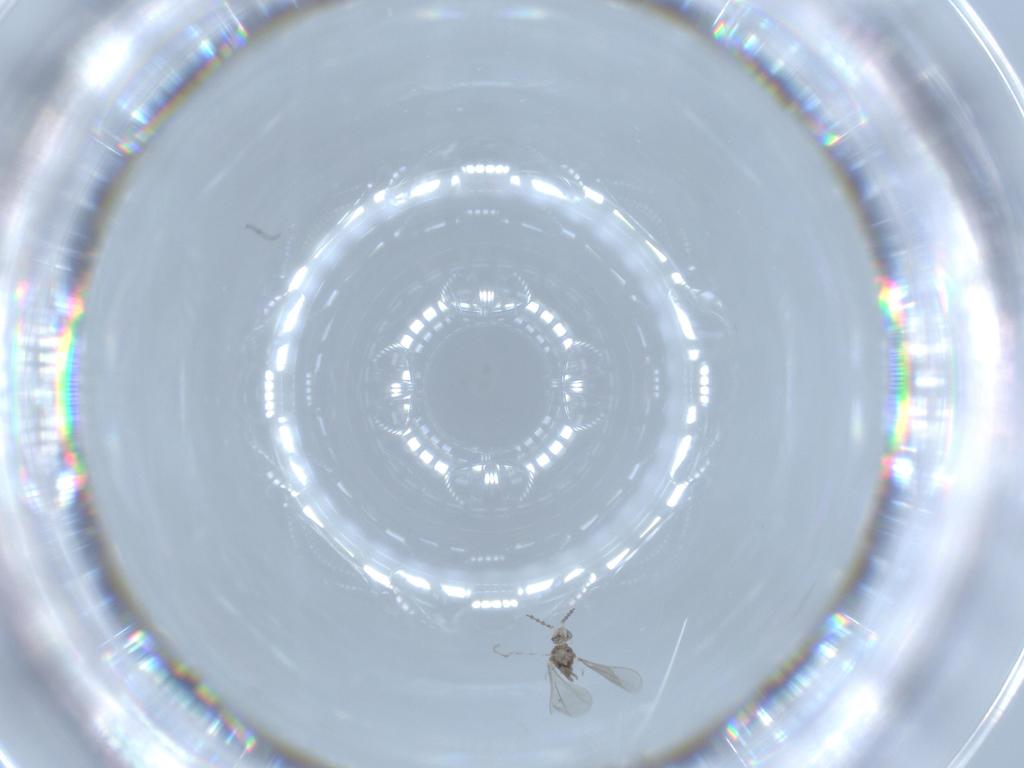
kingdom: Animalia
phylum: Arthropoda
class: Insecta
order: Diptera
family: Cecidomyiidae
